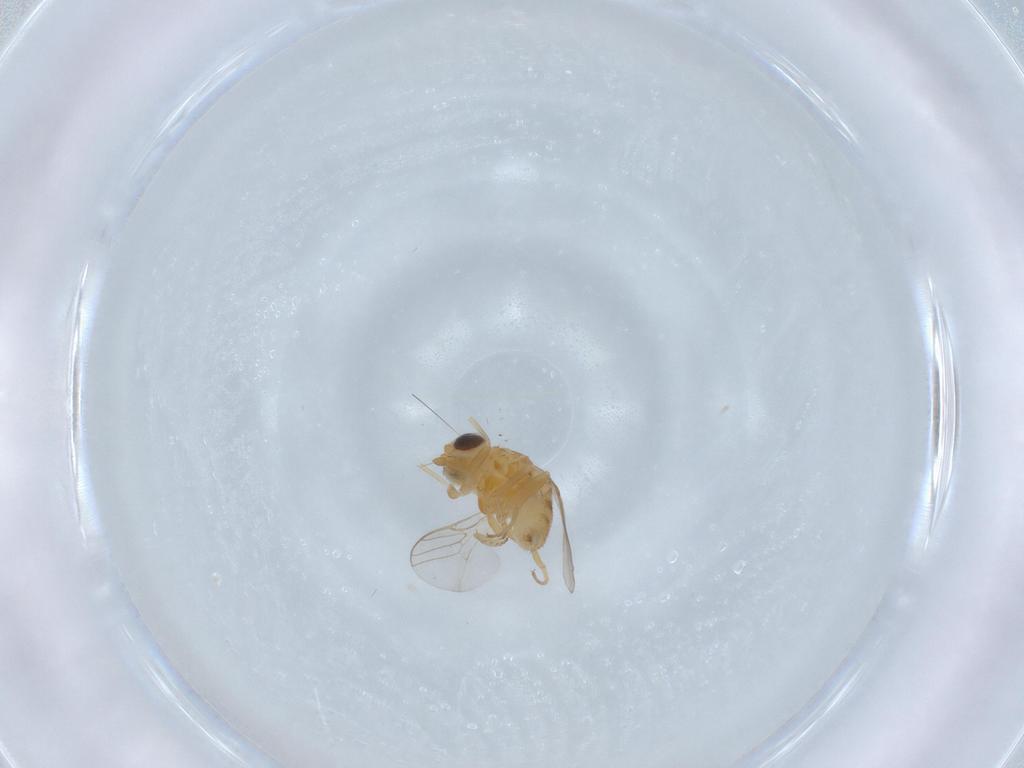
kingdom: Animalia
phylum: Arthropoda
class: Insecta
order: Diptera
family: Chloropidae
